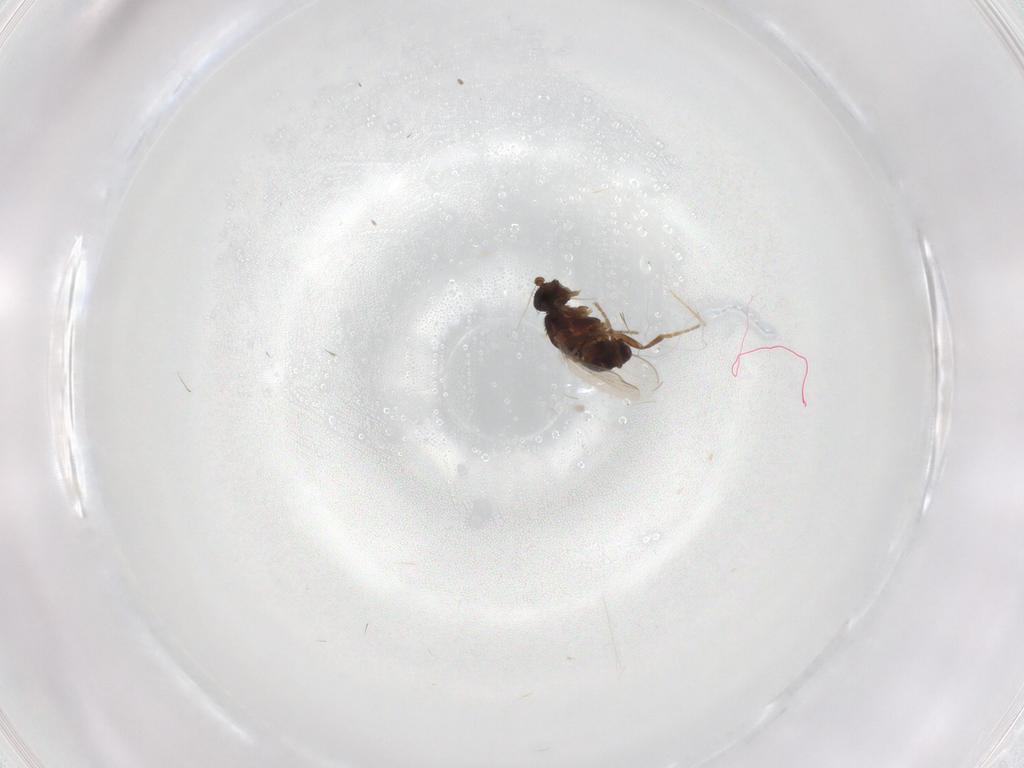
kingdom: Animalia
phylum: Arthropoda
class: Insecta
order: Diptera
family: Sphaeroceridae
